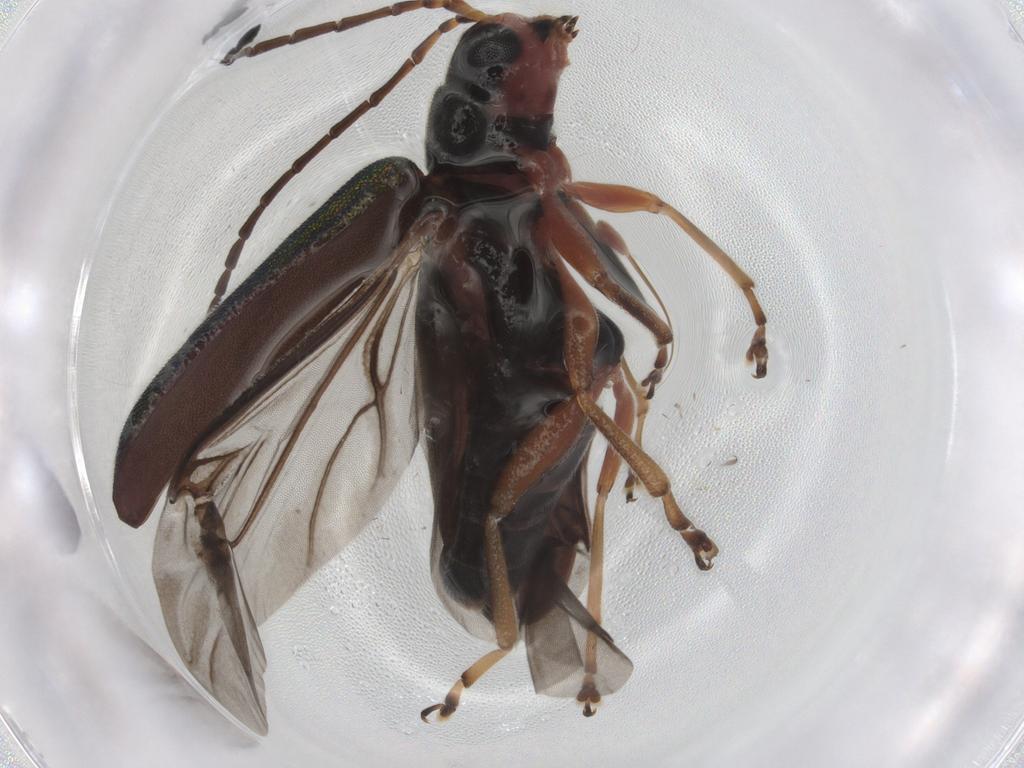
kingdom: Animalia
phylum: Arthropoda
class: Insecta
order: Coleoptera
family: Chrysomelidae
